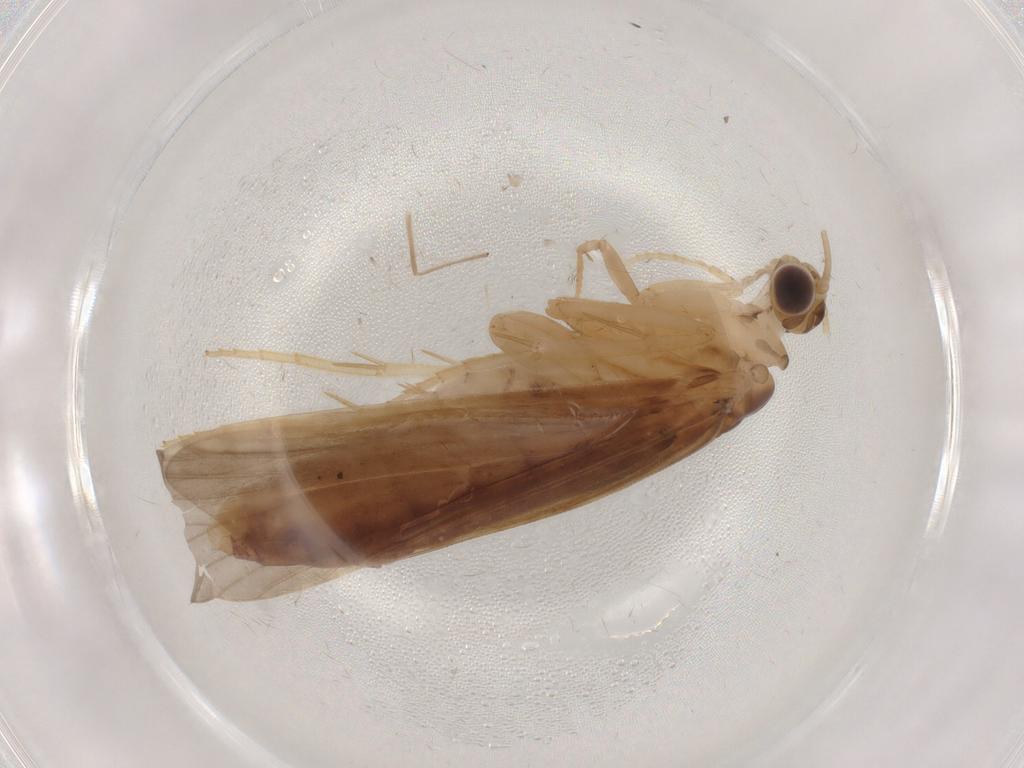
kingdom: Animalia
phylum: Arthropoda
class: Insecta
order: Trichoptera
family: Ecnomidae
